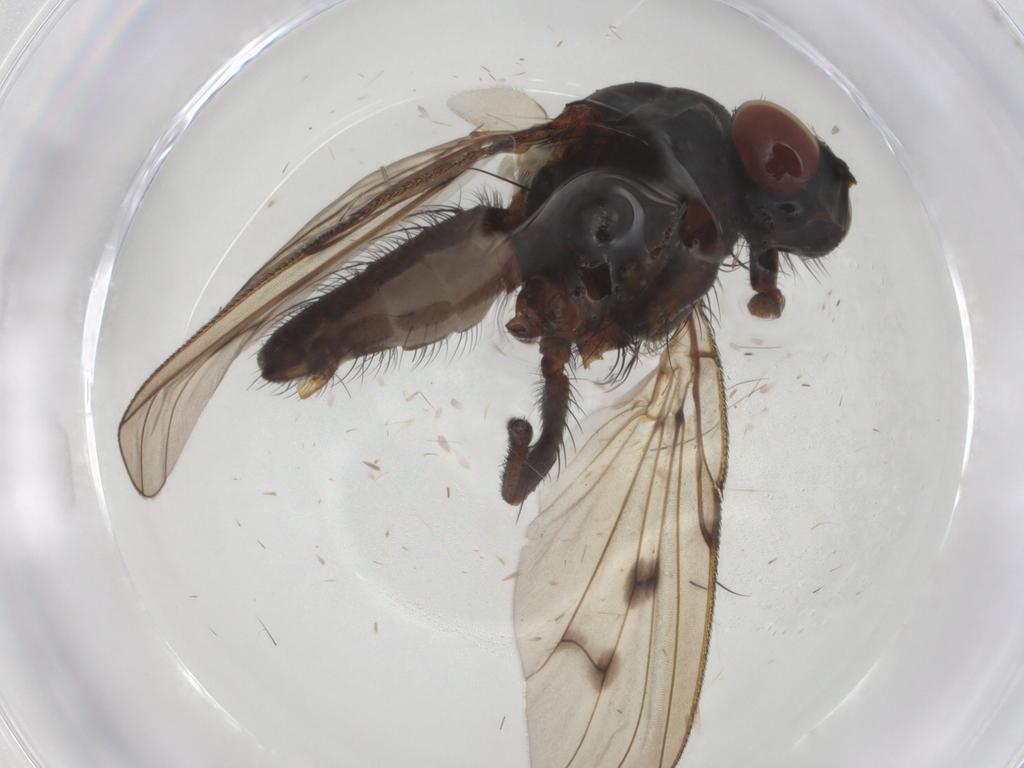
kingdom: Animalia
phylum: Arthropoda
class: Insecta
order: Diptera
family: Anthomyiidae
